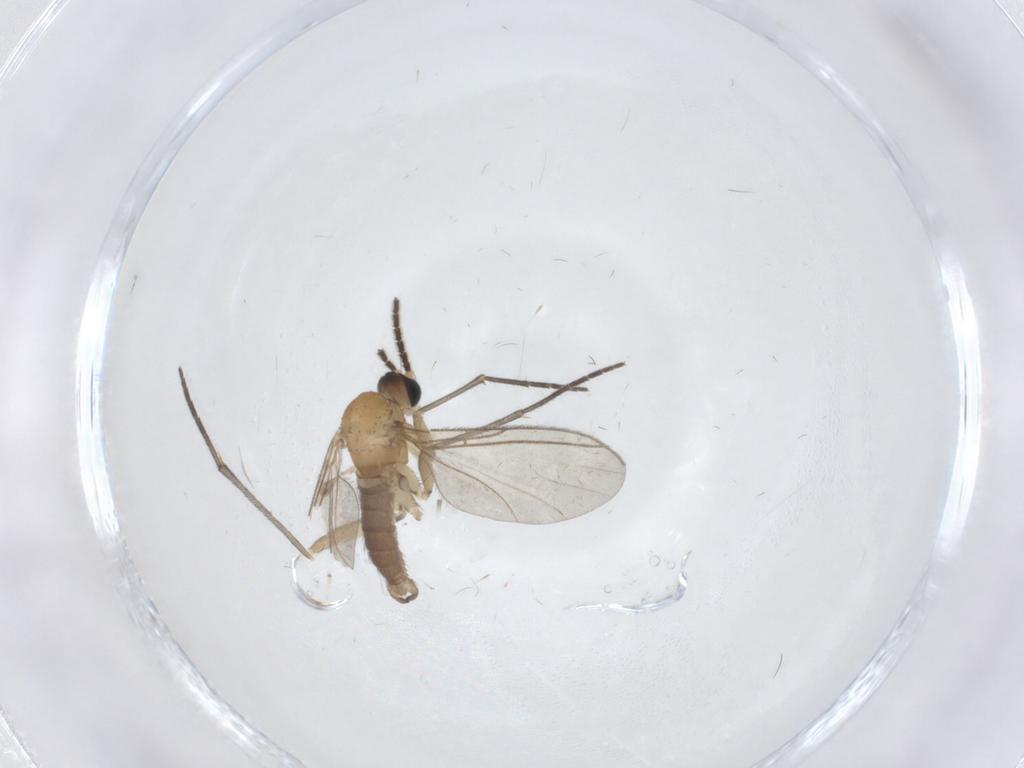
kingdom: Animalia
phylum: Arthropoda
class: Insecta
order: Diptera
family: Sciaridae
